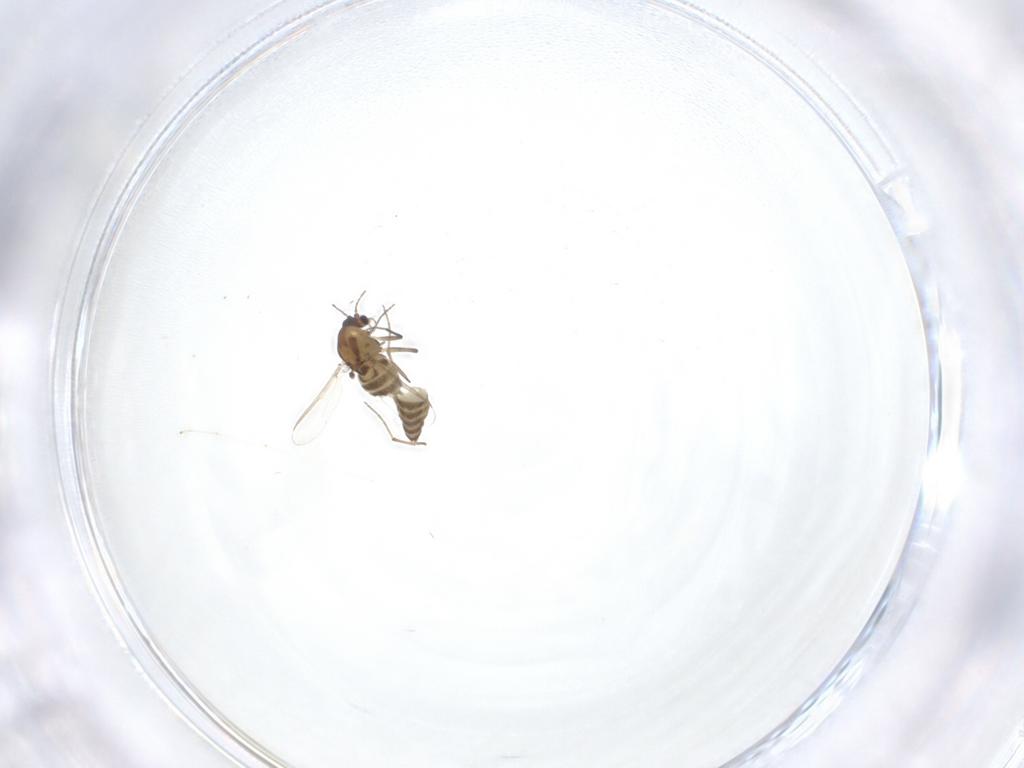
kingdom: Animalia
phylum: Arthropoda
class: Insecta
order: Diptera
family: Chironomidae
